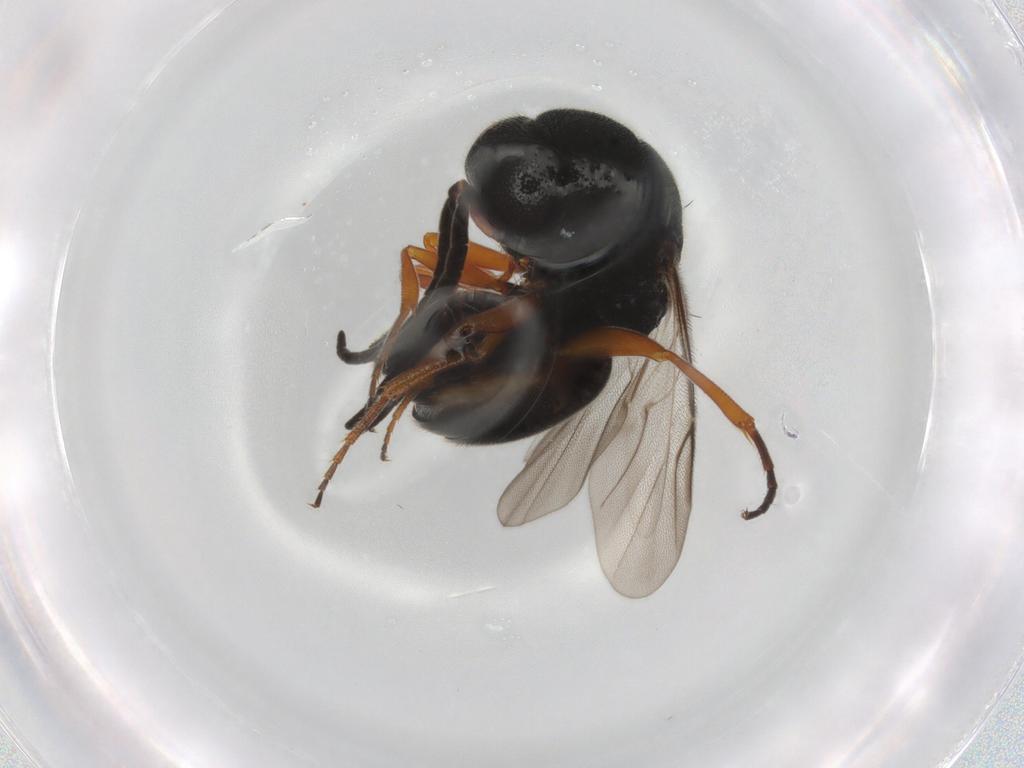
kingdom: Animalia
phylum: Arthropoda
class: Insecta
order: Hymenoptera
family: Chrysididae
